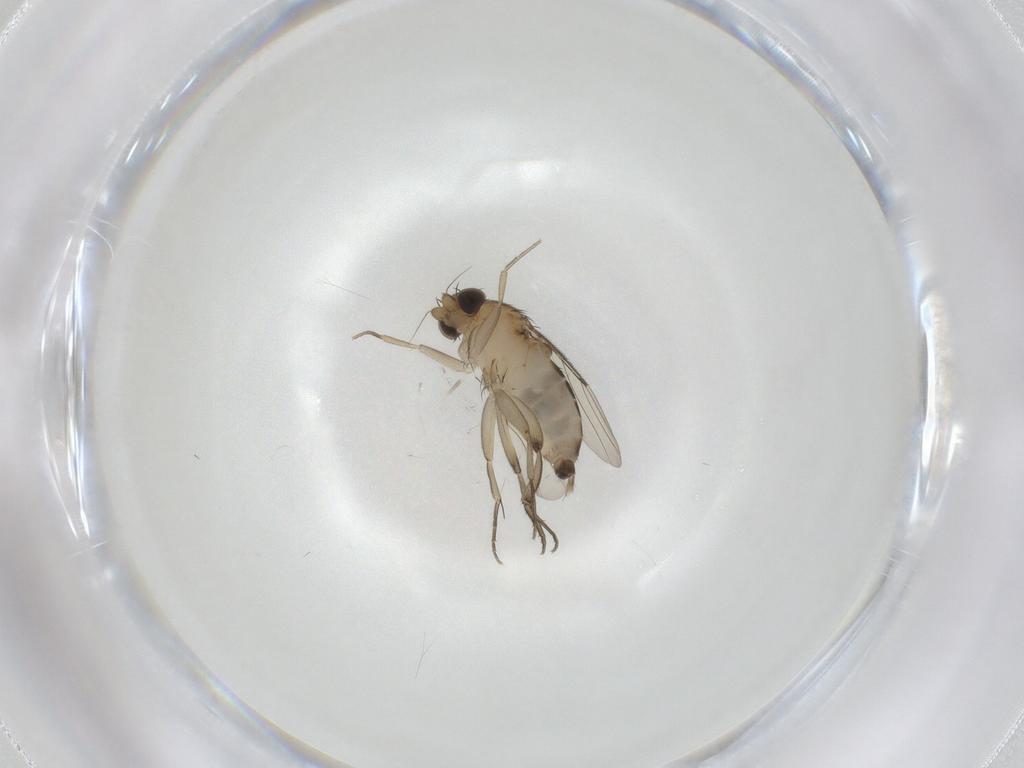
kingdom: Animalia
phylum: Arthropoda
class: Insecta
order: Diptera
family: Phoridae
